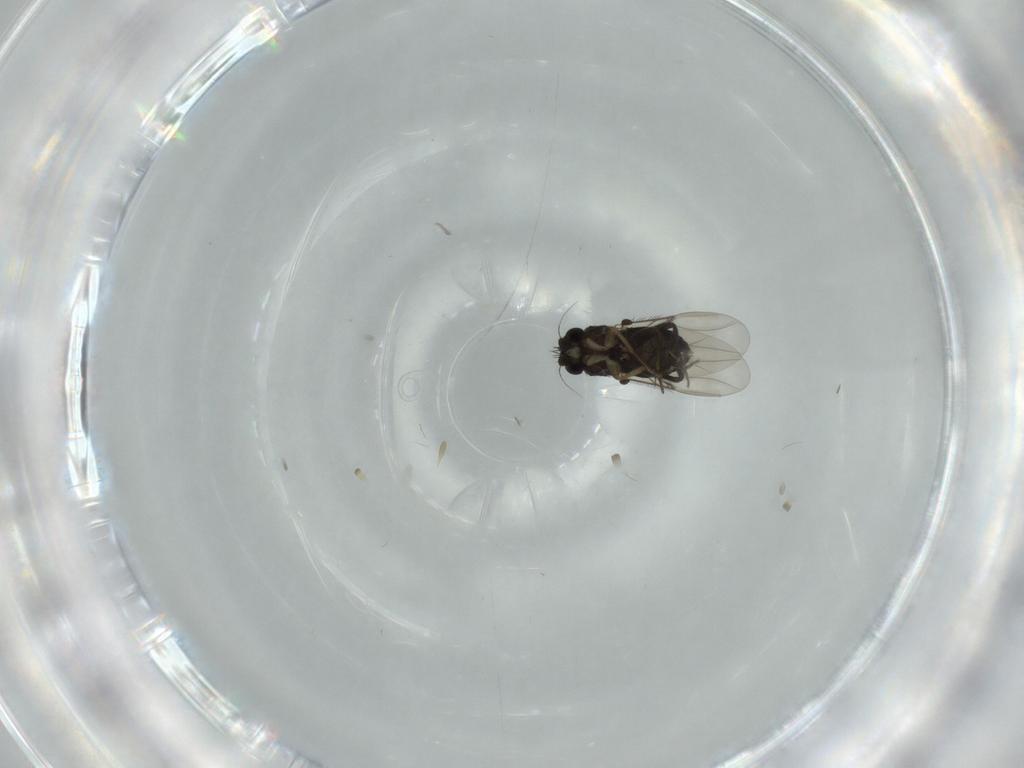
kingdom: Animalia
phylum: Arthropoda
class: Insecta
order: Diptera
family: Phoridae
